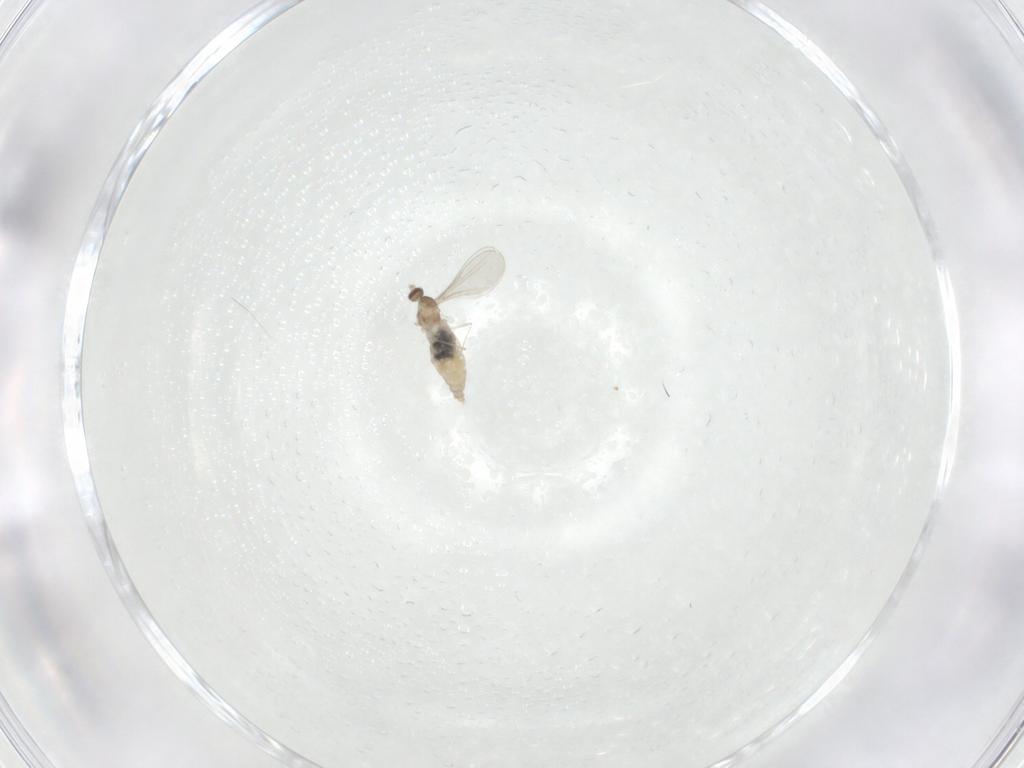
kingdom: Animalia
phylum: Arthropoda
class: Insecta
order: Diptera
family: Cecidomyiidae
